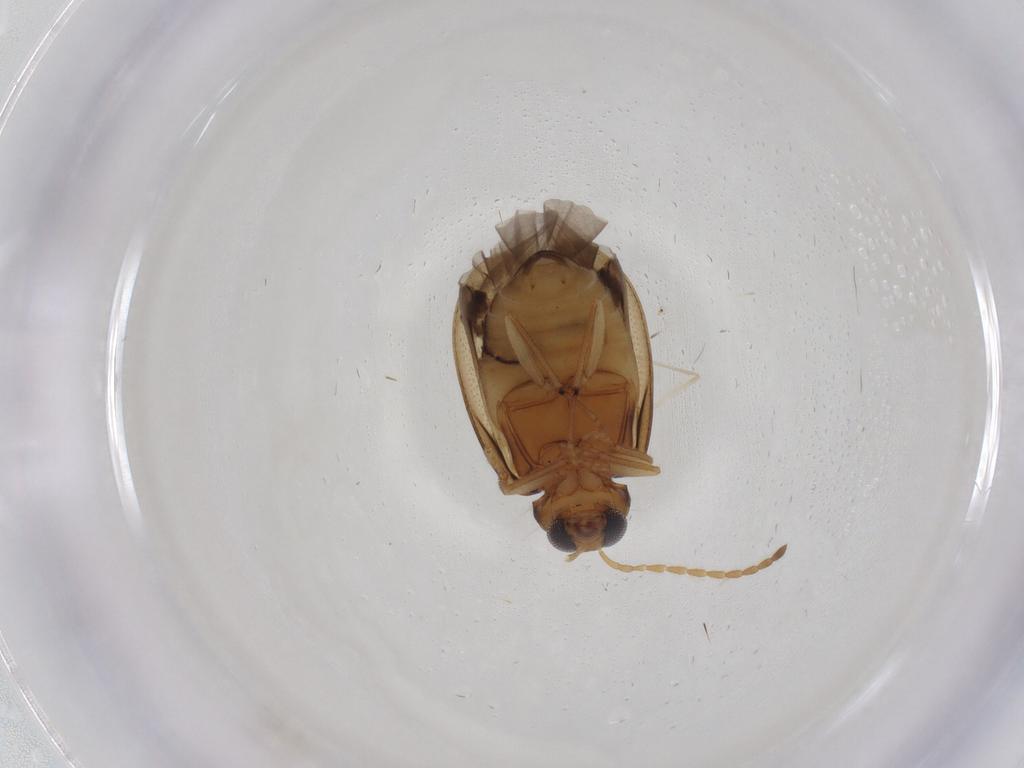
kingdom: Animalia
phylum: Arthropoda
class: Insecta
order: Coleoptera
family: Chrysomelidae
